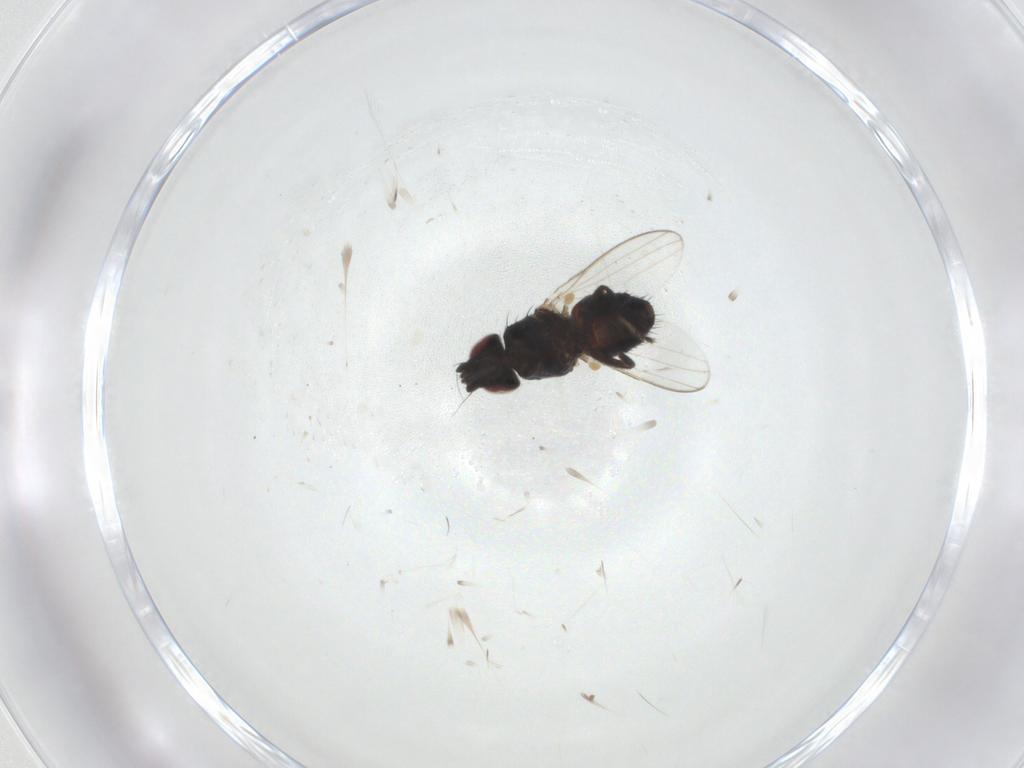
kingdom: Animalia
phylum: Arthropoda
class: Insecta
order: Diptera
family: Milichiidae
